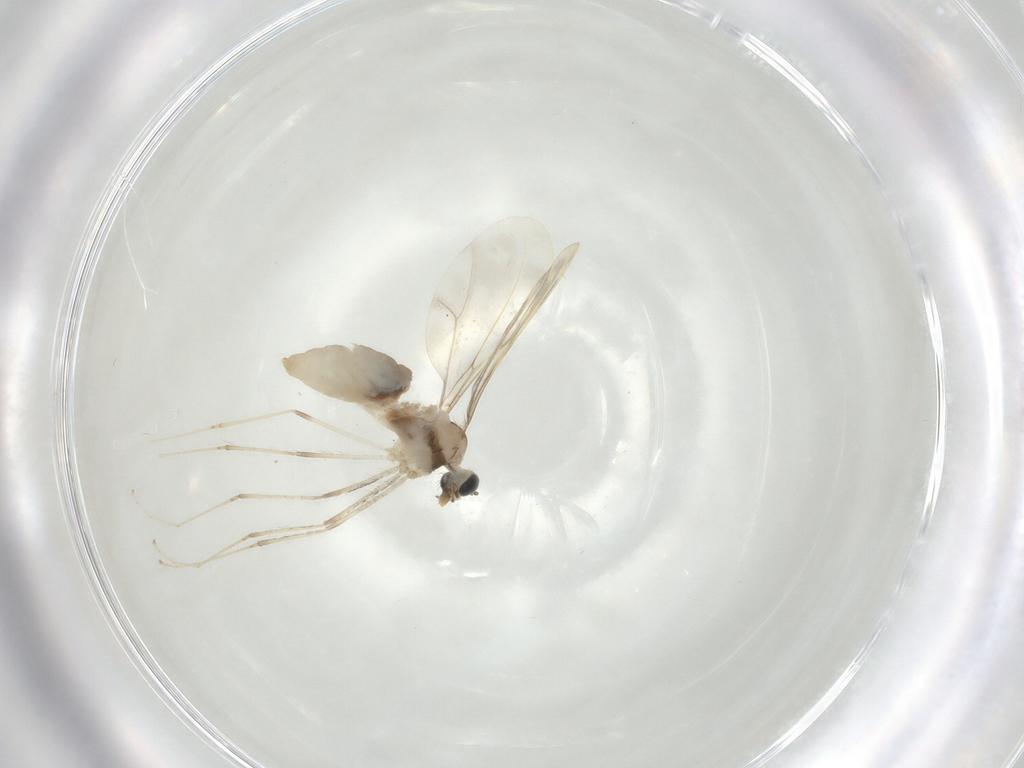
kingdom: Animalia
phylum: Arthropoda
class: Insecta
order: Diptera
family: Cecidomyiidae
